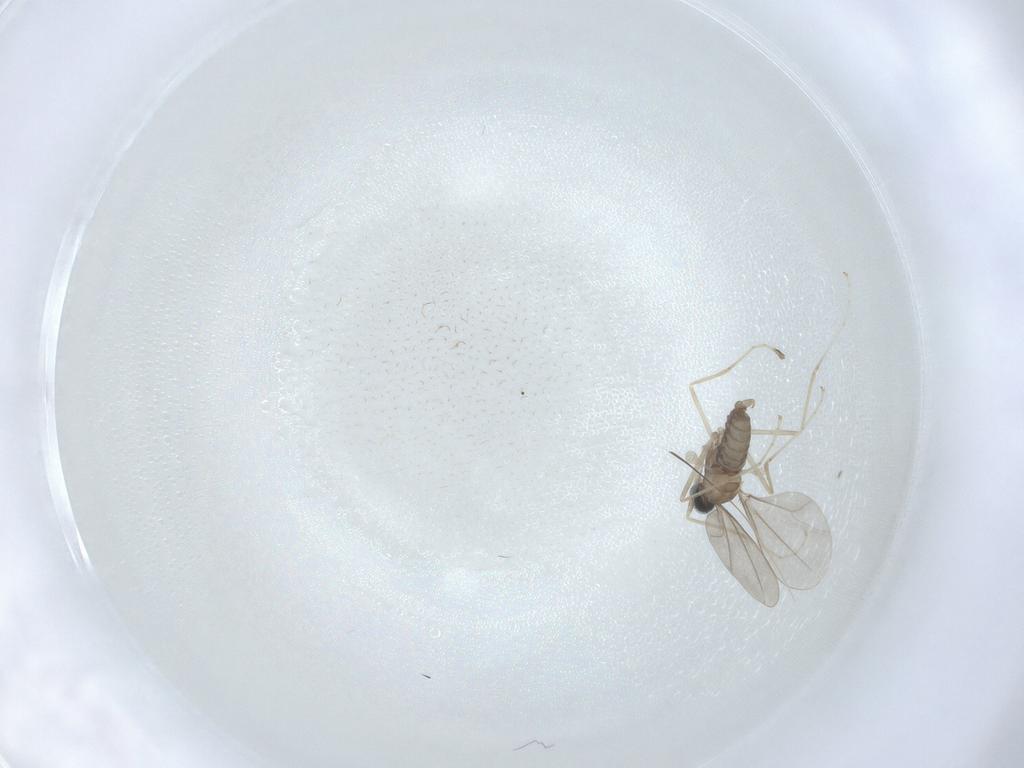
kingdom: Animalia
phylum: Arthropoda
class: Insecta
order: Diptera
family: Cecidomyiidae
